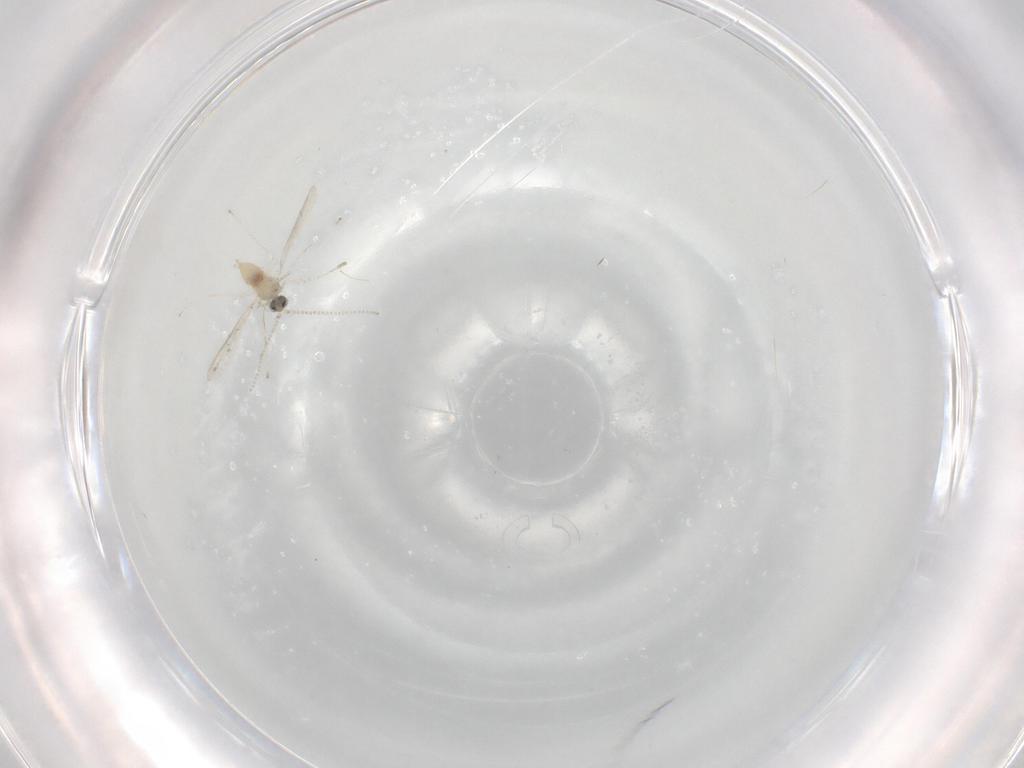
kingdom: Animalia
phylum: Arthropoda
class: Insecta
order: Diptera
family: Cecidomyiidae
